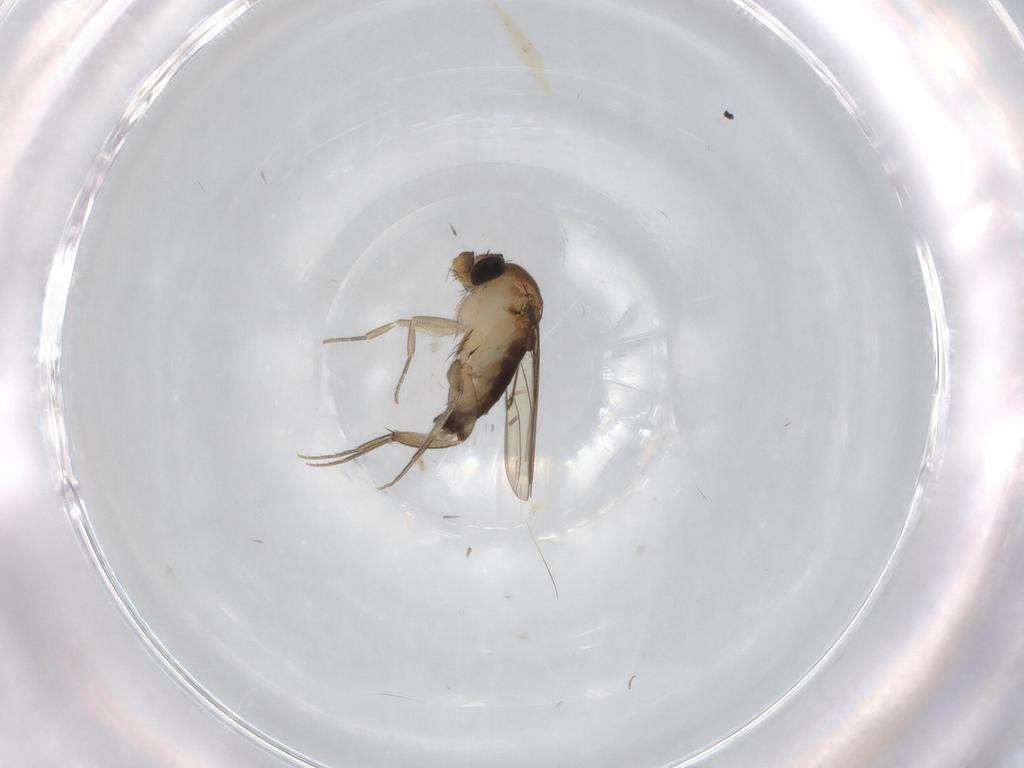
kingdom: Animalia
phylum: Arthropoda
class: Insecta
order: Diptera
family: Phoridae
